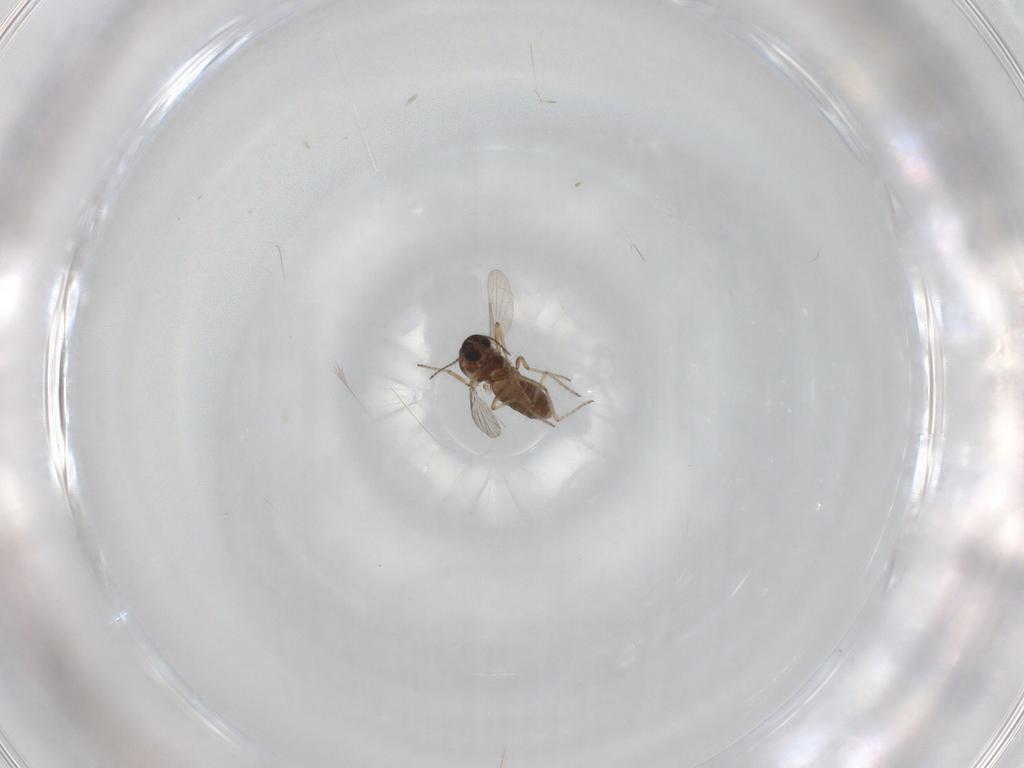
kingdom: Animalia
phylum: Arthropoda
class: Insecta
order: Diptera
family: Ceratopogonidae
